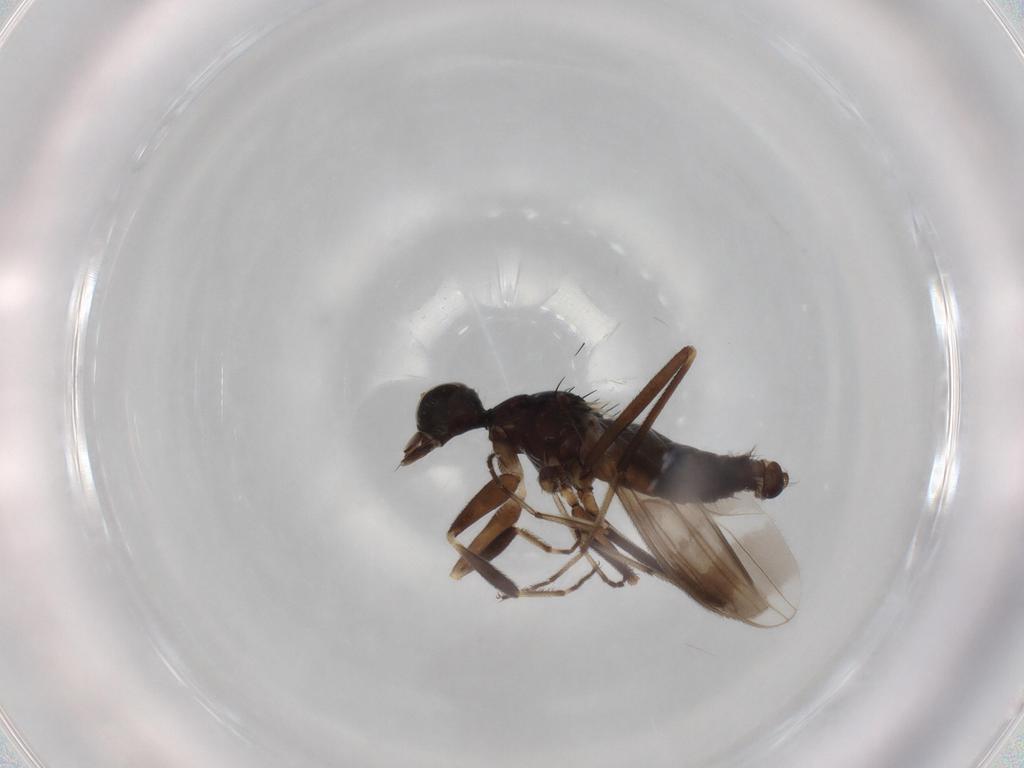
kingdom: Animalia
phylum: Arthropoda
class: Insecta
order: Diptera
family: Hybotidae
